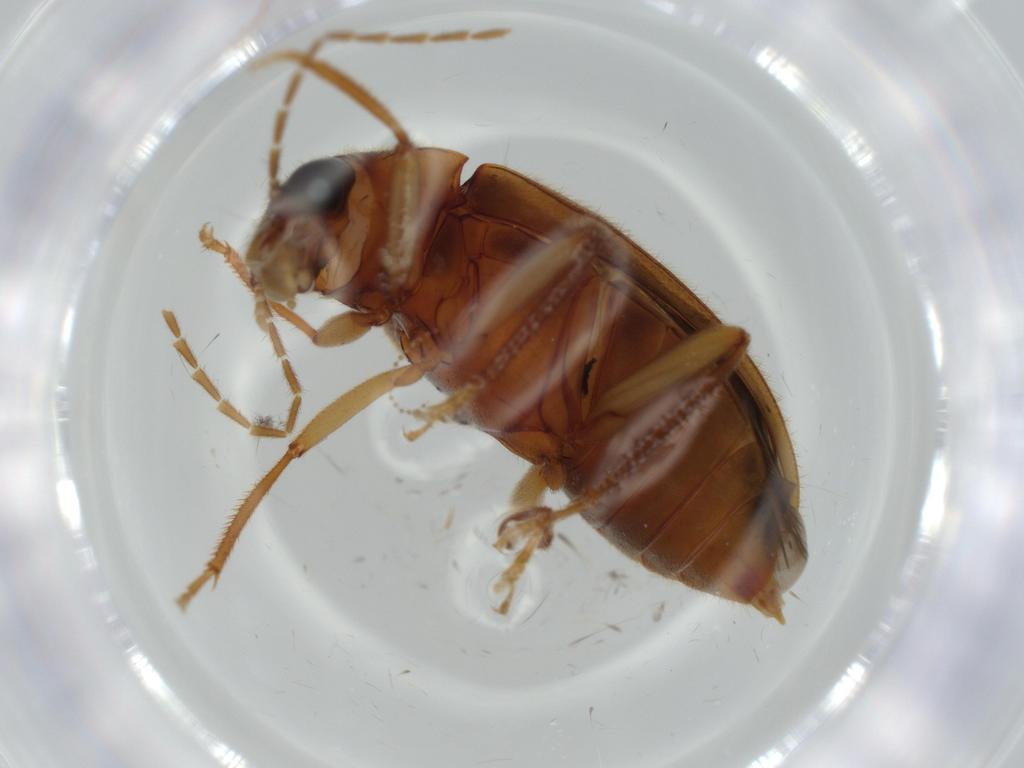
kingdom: Animalia
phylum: Arthropoda
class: Insecta
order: Coleoptera
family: Ptilodactylidae
